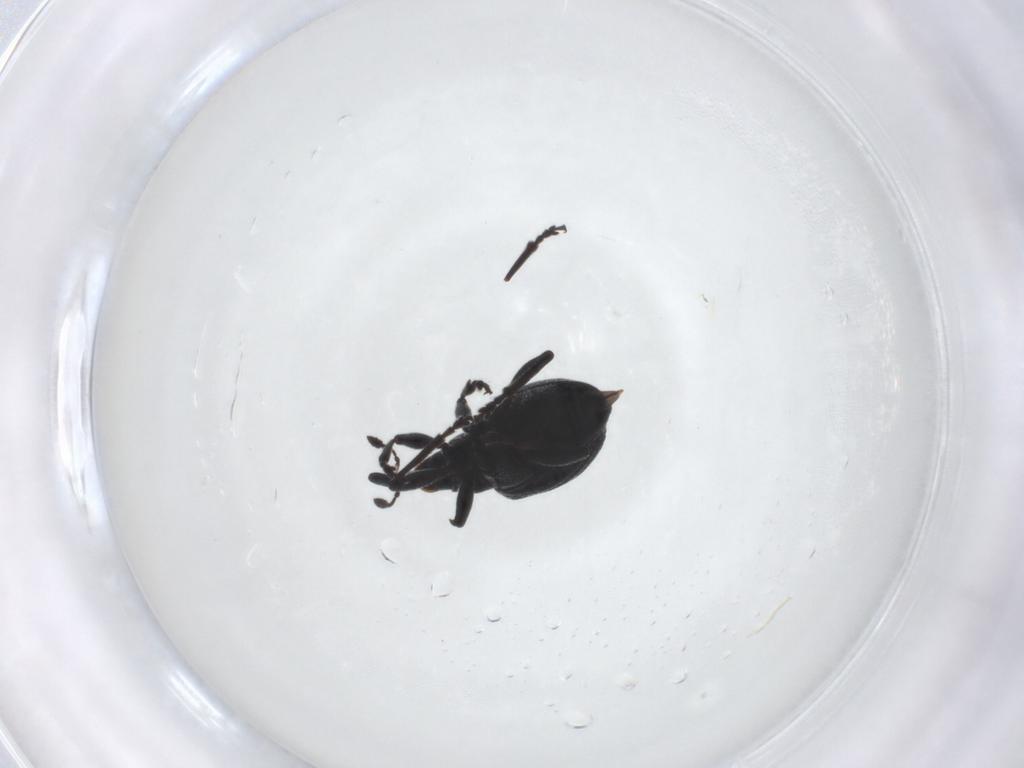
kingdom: Animalia
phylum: Arthropoda
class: Insecta
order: Coleoptera
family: Brentidae
